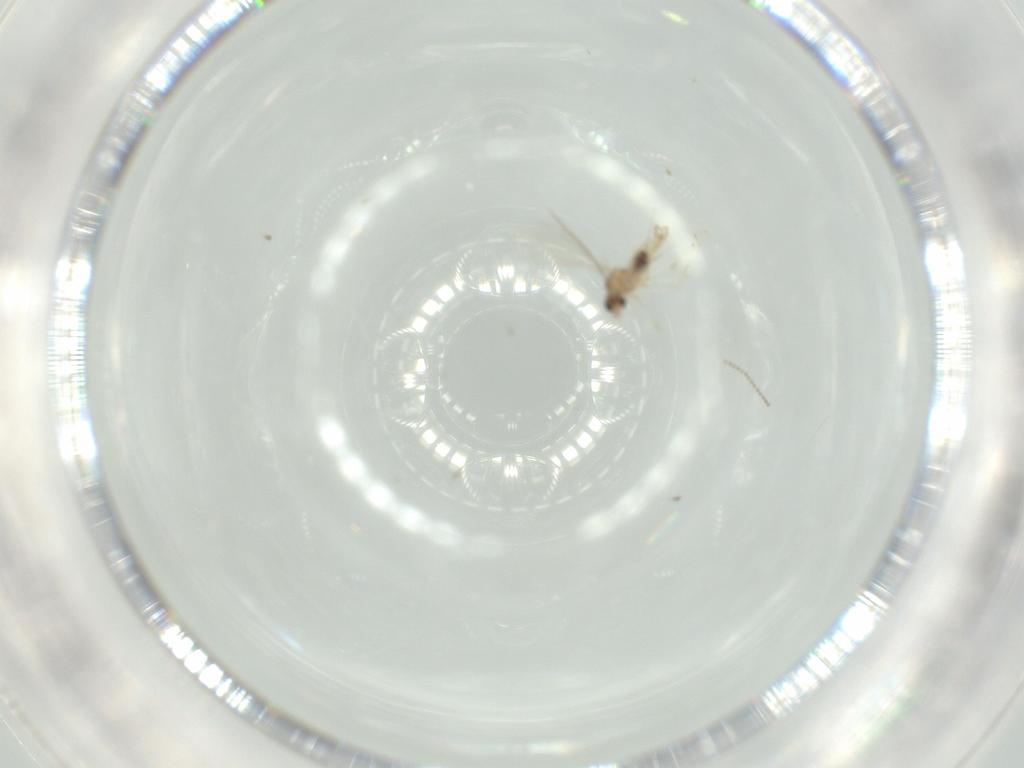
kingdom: Animalia
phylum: Arthropoda
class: Insecta
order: Diptera
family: Cecidomyiidae
